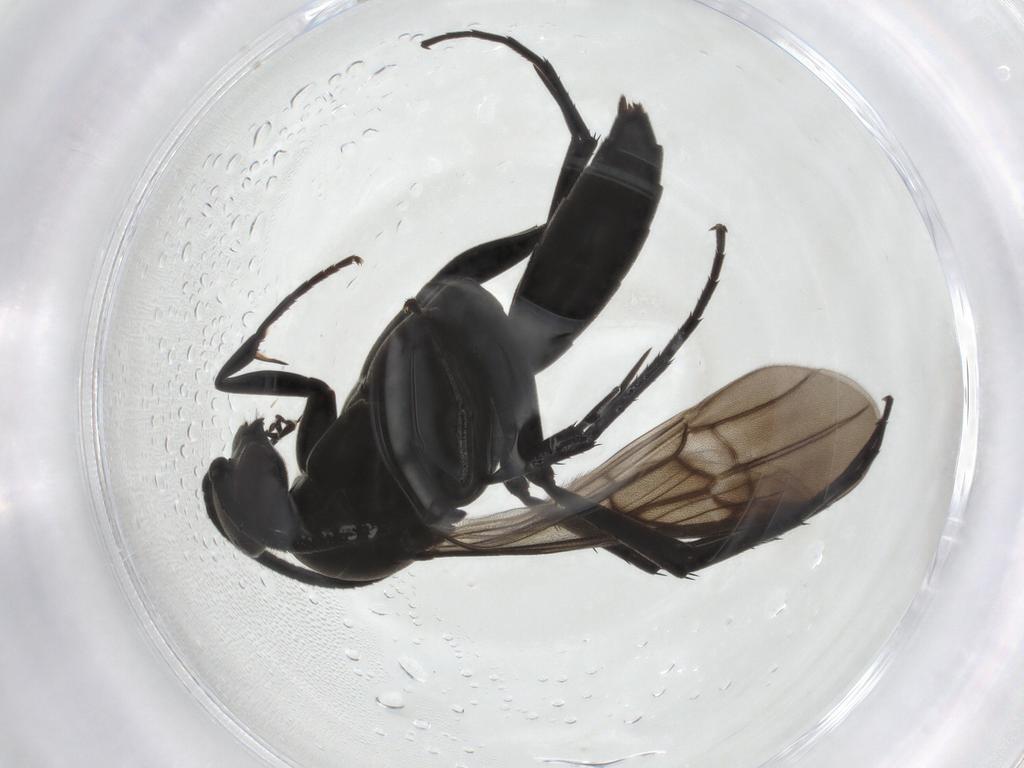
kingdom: Animalia
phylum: Arthropoda
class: Insecta
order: Hymenoptera
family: Pompilidae
